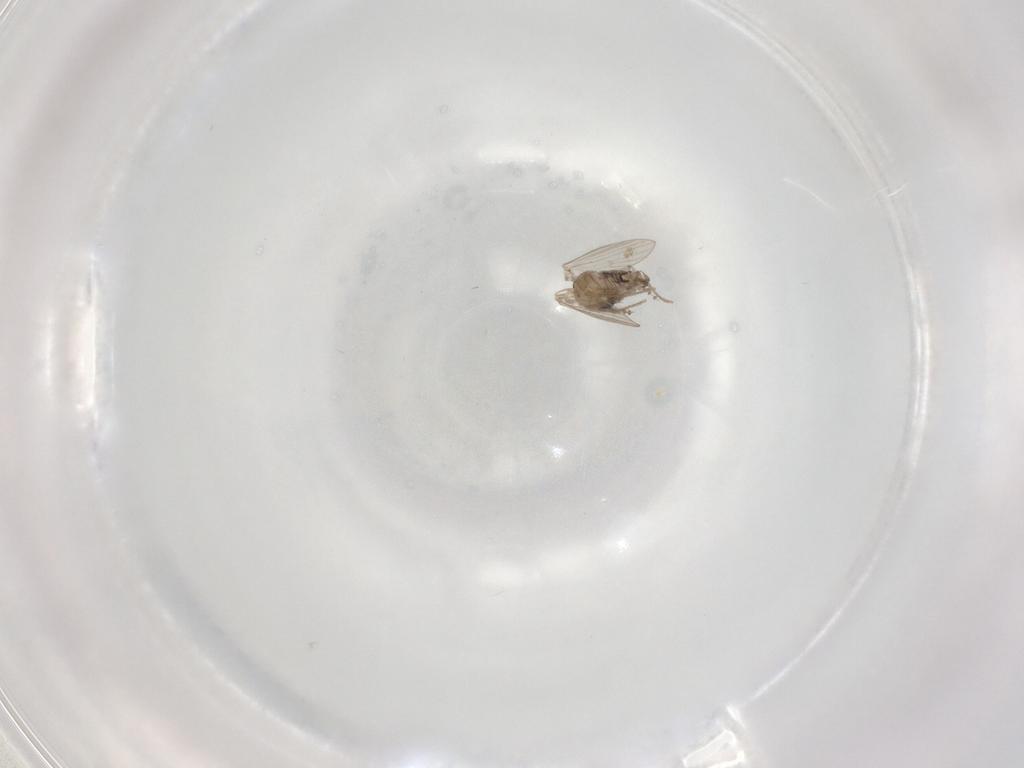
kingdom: Animalia
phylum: Arthropoda
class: Insecta
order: Diptera
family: Psychodidae
